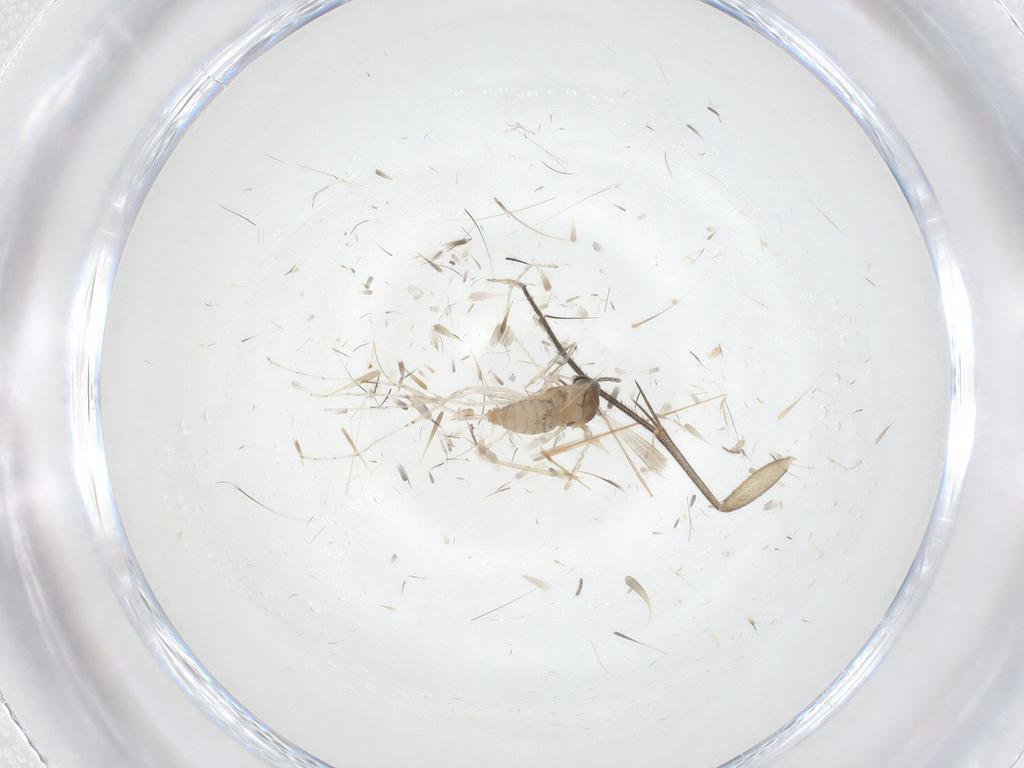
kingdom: Animalia
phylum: Arthropoda
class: Insecta
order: Diptera
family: Cecidomyiidae
